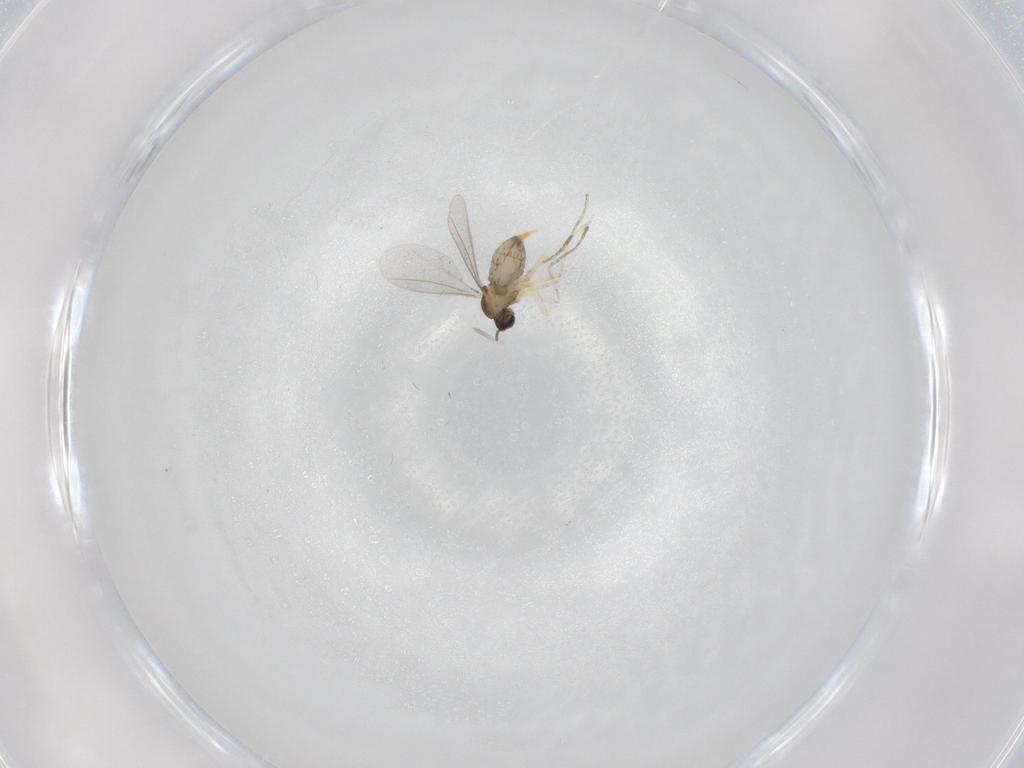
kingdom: Animalia
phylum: Arthropoda
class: Insecta
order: Diptera
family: Cecidomyiidae
